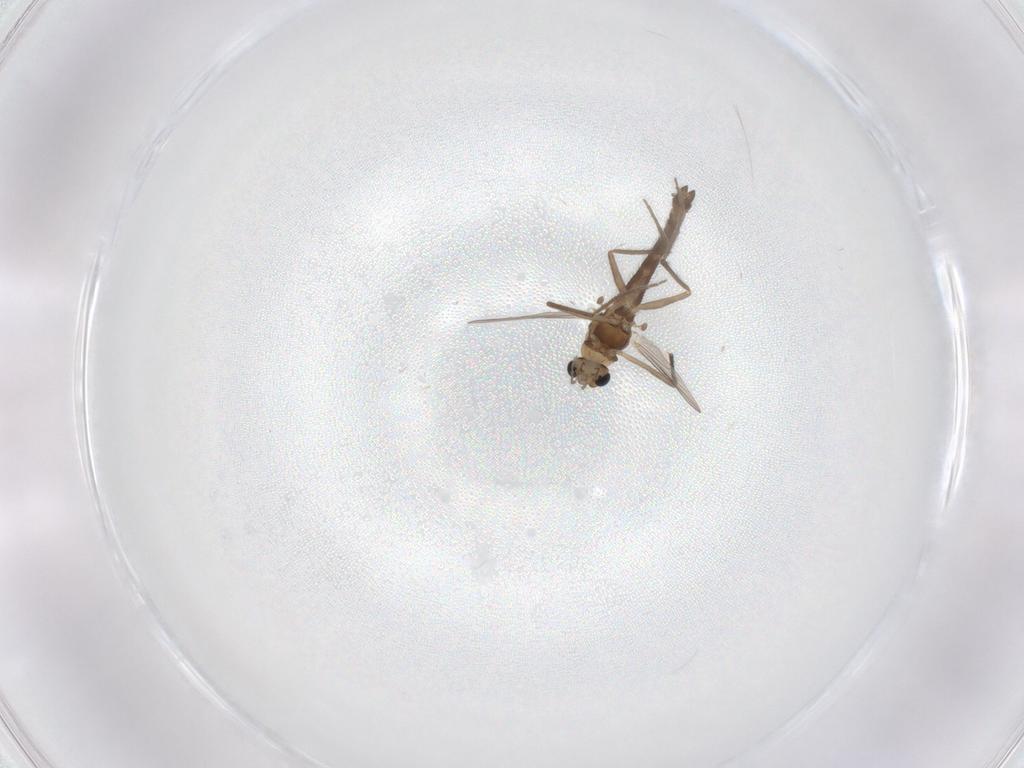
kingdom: Animalia
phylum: Arthropoda
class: Insecta
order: Diptera
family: Chironomidae
